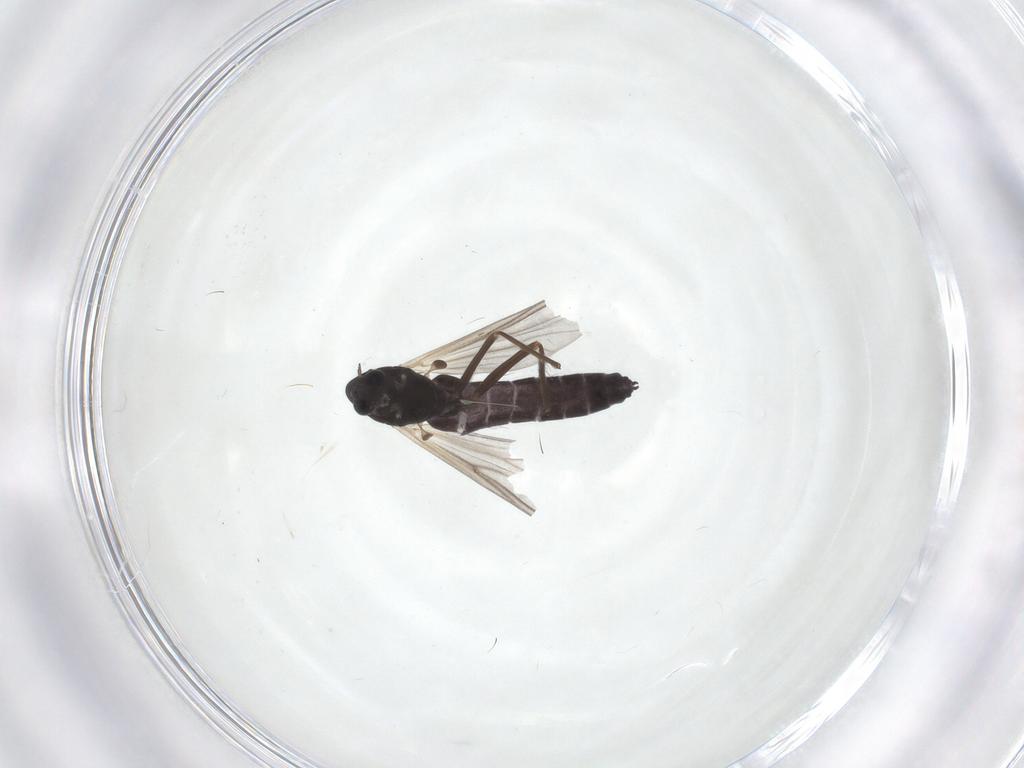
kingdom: Animalia
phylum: Arthropoda
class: Insecta
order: Diptera
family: Chironomidae
